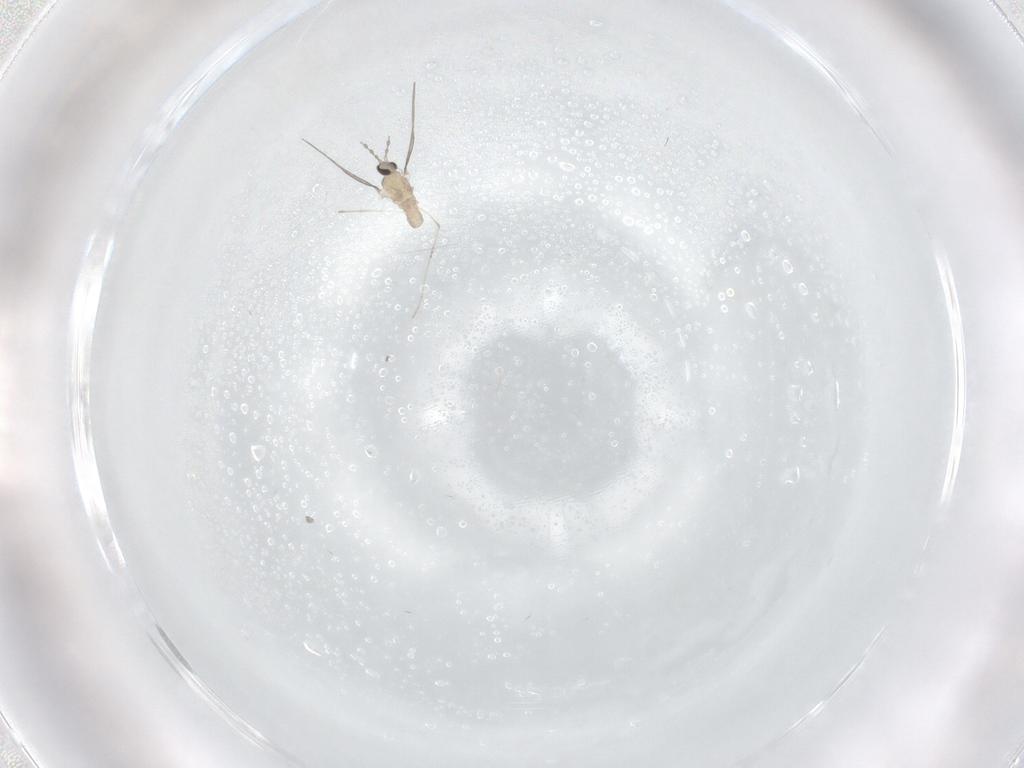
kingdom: Animalia
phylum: Arthropoda
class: Insecta
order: Diptera
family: Cecidomyiidae
